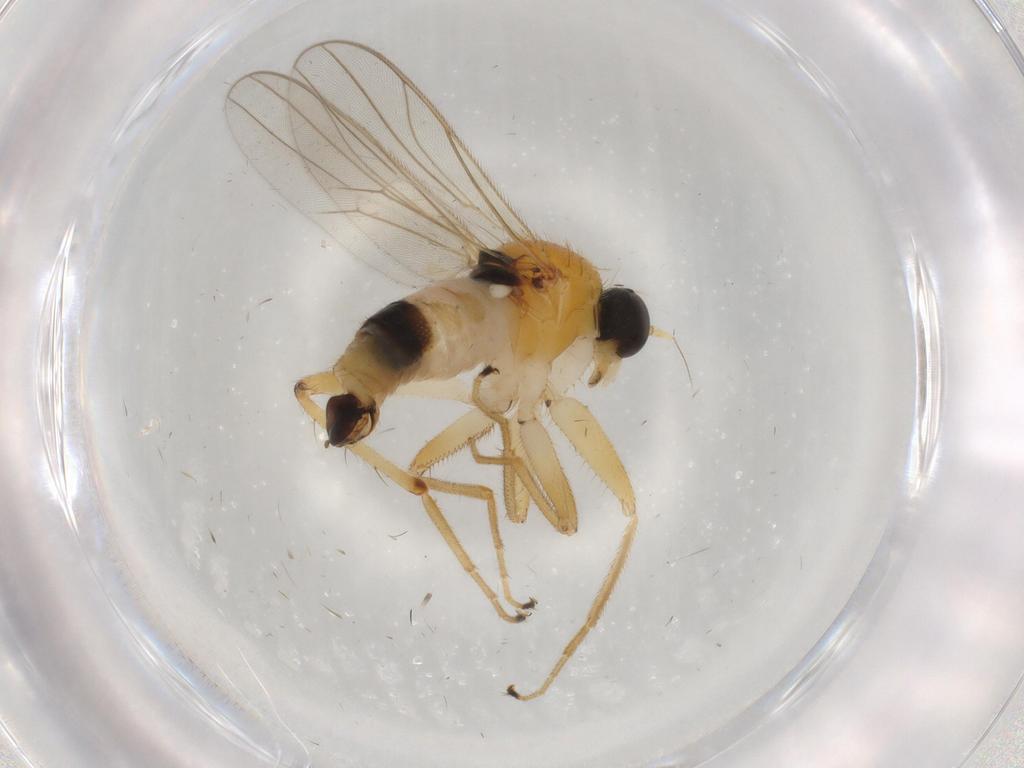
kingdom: Animalia
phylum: Arthropoda
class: Insecta
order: Diptera
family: Hybotidae
